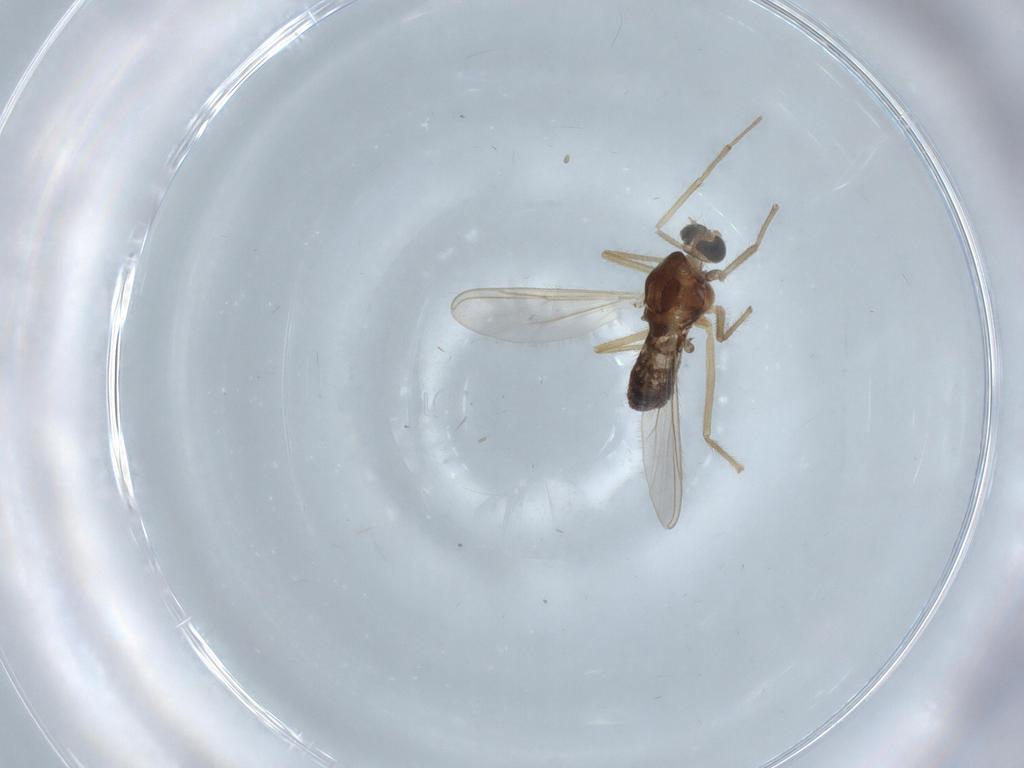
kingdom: Animalia
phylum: Arthropoda
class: Insecta
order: Diptera
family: Chironomidae
